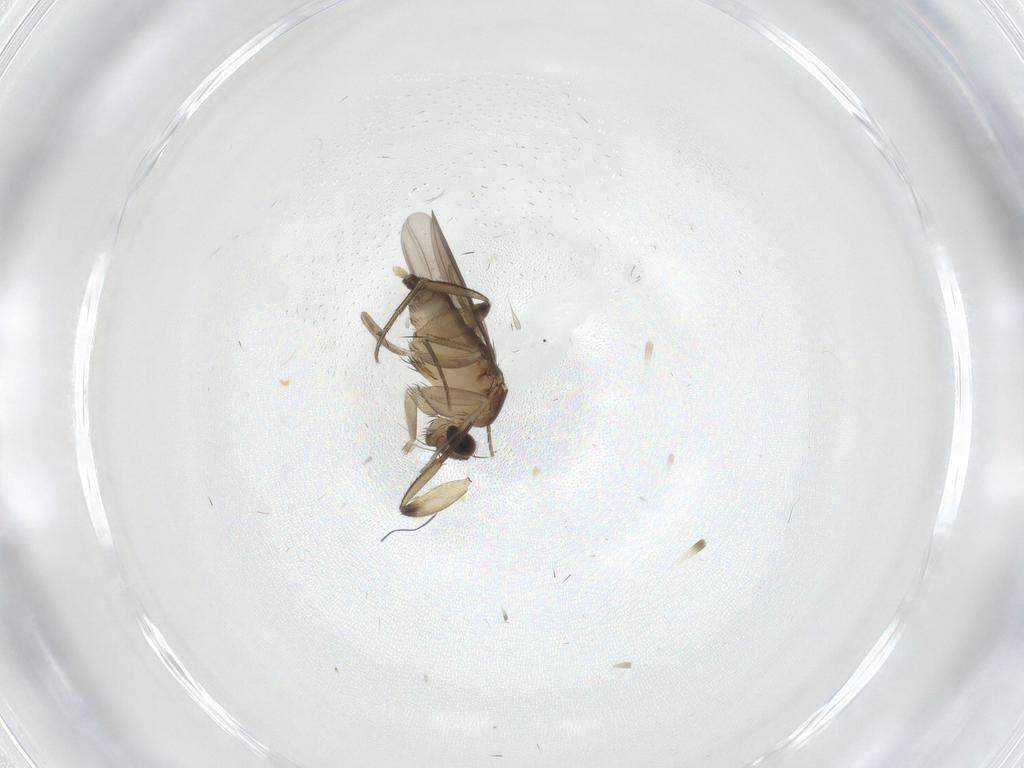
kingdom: Animalia
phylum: Arthropoda
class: Insecta
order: Diptera
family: Phoridae
